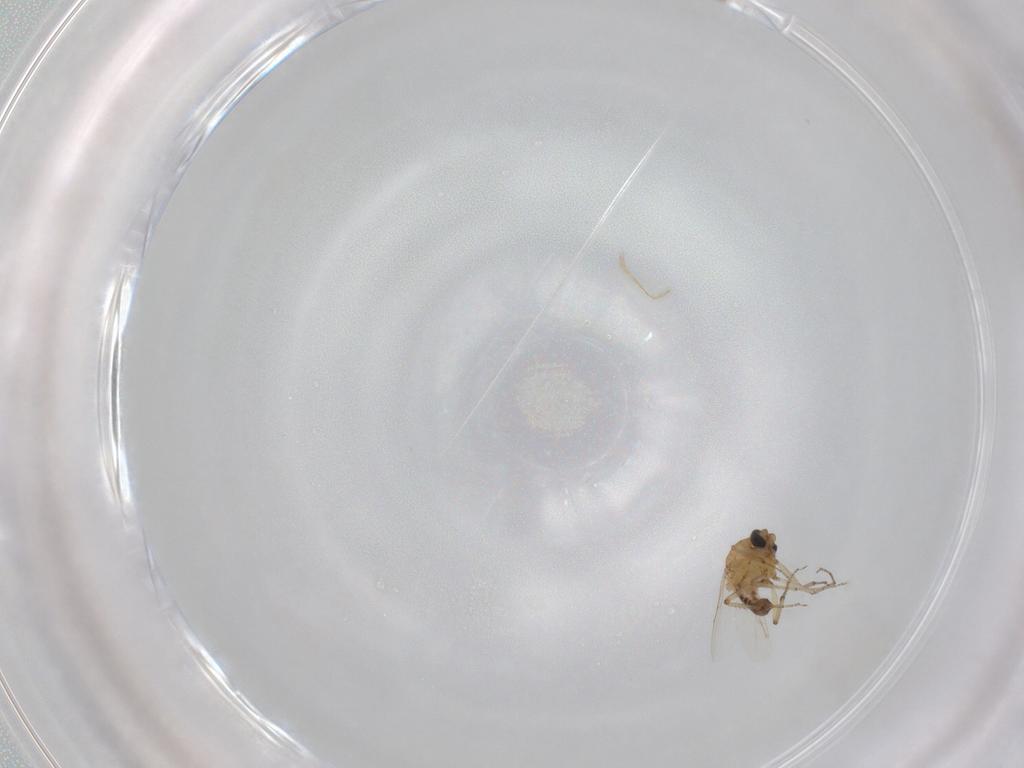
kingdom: Animalia
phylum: Arthropoda
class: Insecta
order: Diptera
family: Ceratopogonidae
